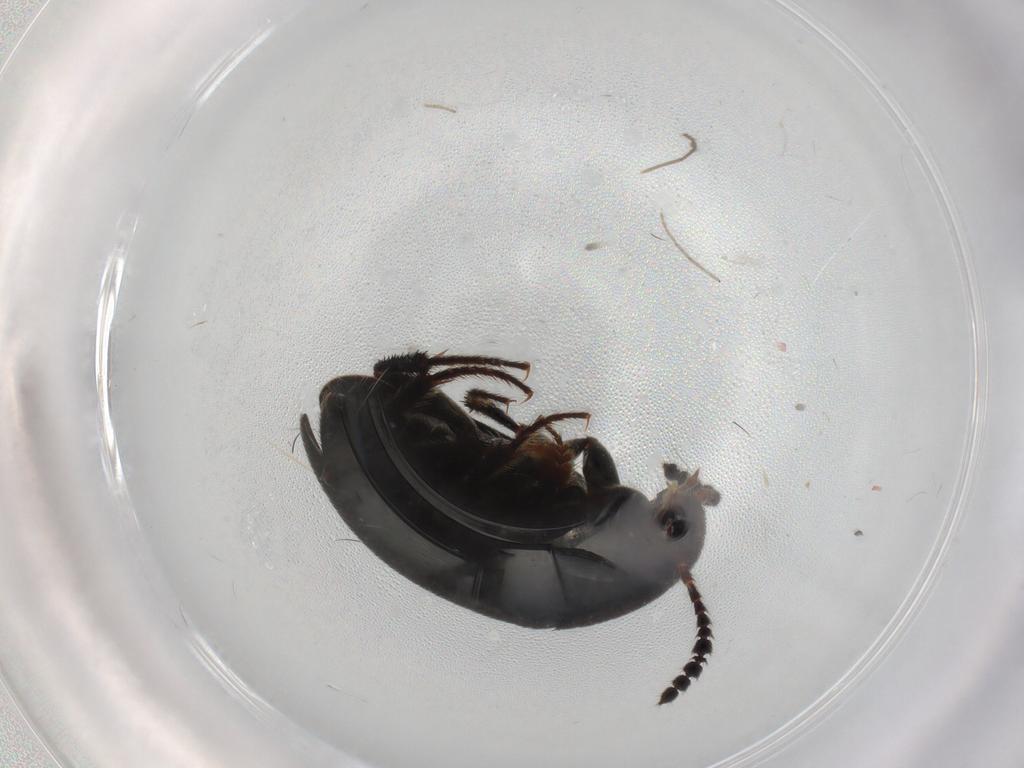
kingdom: Animalia
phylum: Arthropoda
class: Insecta
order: Coleoptera
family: Leiodidae
